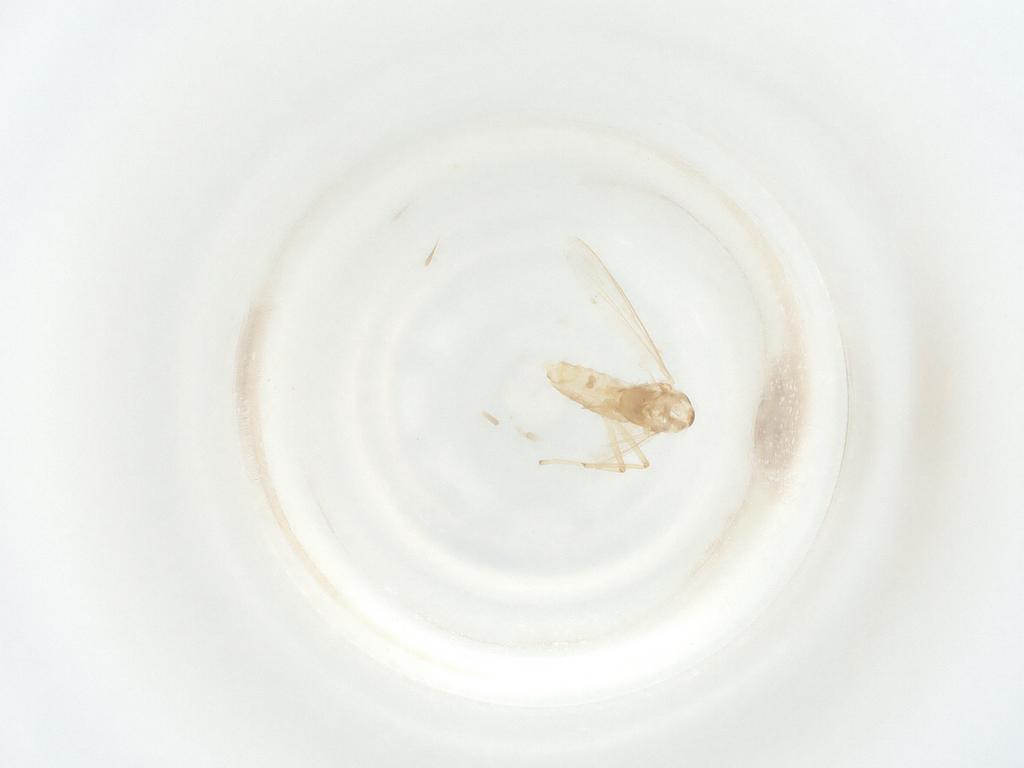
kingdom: Animalia
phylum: Arthropoda
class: Insecta
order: Diptera
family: Chironomidae
